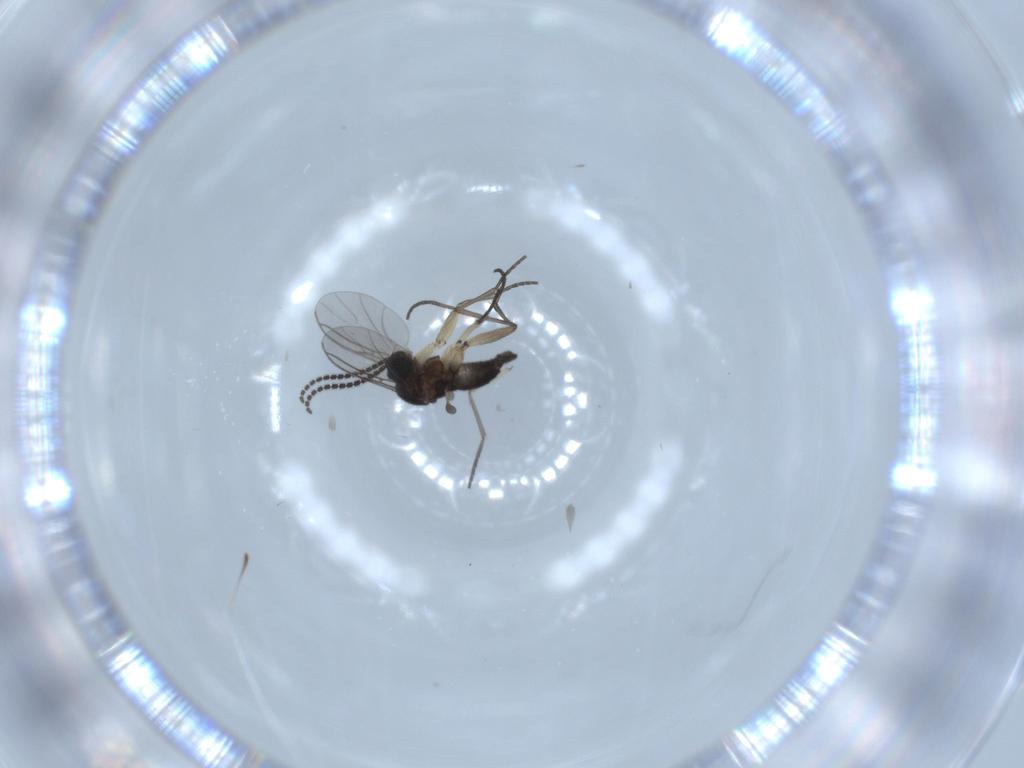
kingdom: Animalia
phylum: Arthropoda
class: Insecta
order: Diptera
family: Sciaridae
